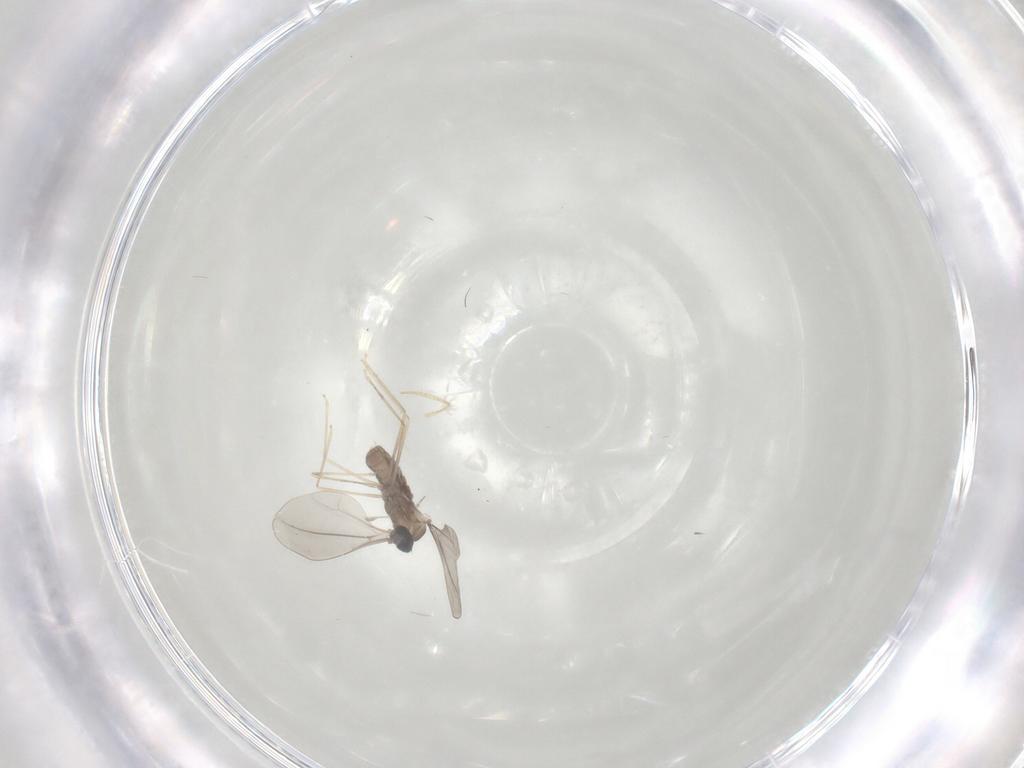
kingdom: Animalia
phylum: Arthropoda
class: Insecta
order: Diptera
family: Cecidomyiidae
